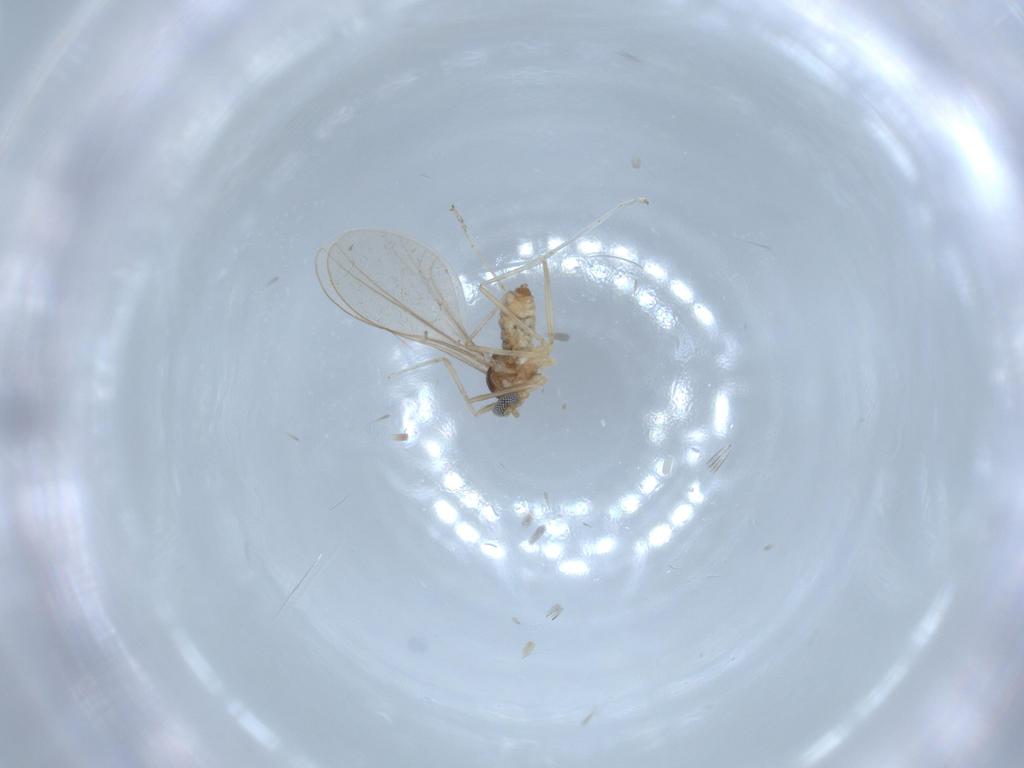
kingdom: Animalia
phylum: Arthropoda
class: Insecta
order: Diptera
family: Cecidomyiidae
